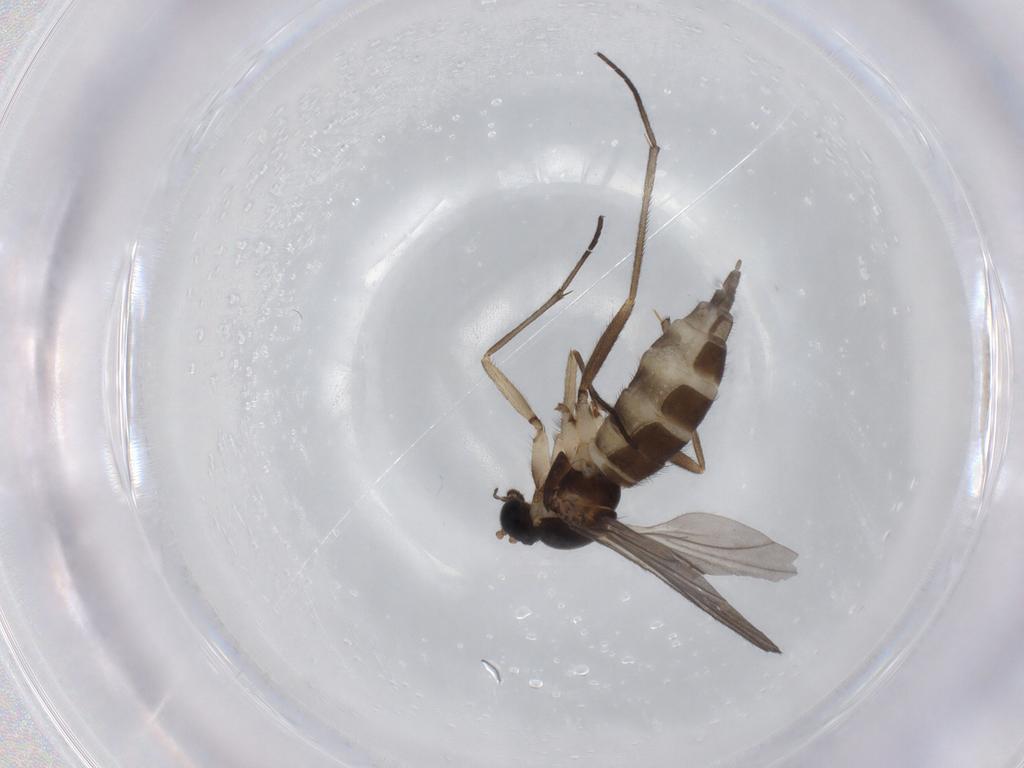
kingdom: Animalia
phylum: Arthropoda
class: Insecta
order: Diptera
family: Sciaridae
